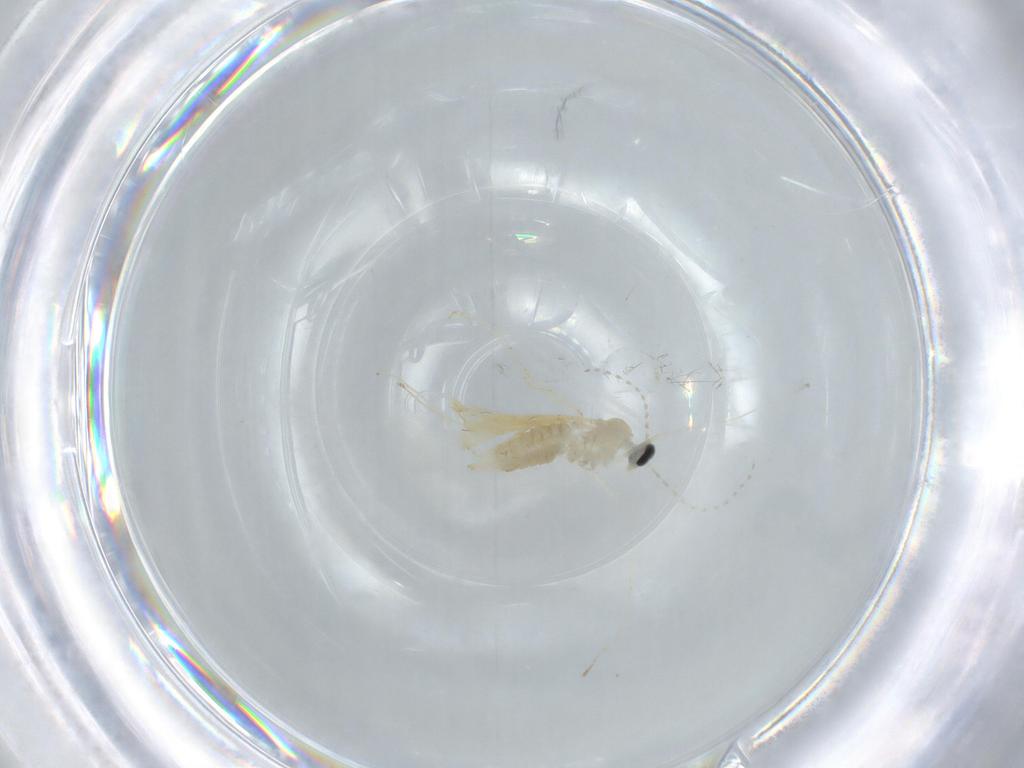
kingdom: Animalia
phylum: Arthropoda
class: Insecta
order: Diptera
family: Cecidomyiidae
